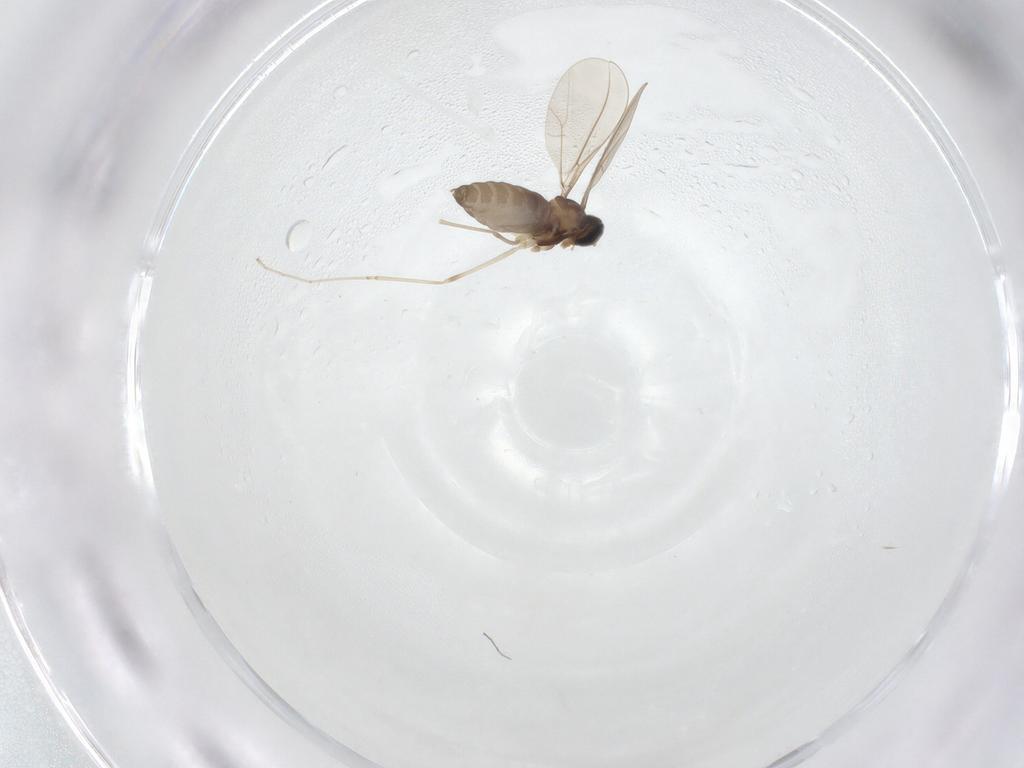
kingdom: Animalia
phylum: Arthropoda
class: Insecta
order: Diptera
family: Cecidomyiidae
